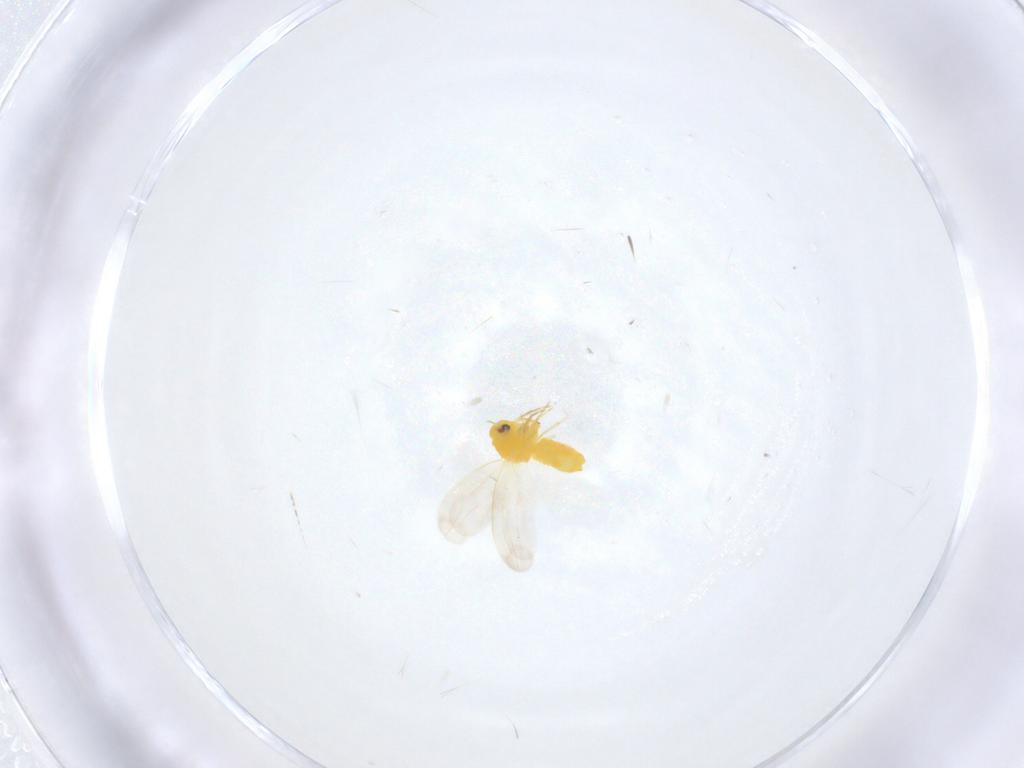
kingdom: Animalia
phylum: Arthropoda
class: Insecta
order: Hemiptera
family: Aleyrodidae
